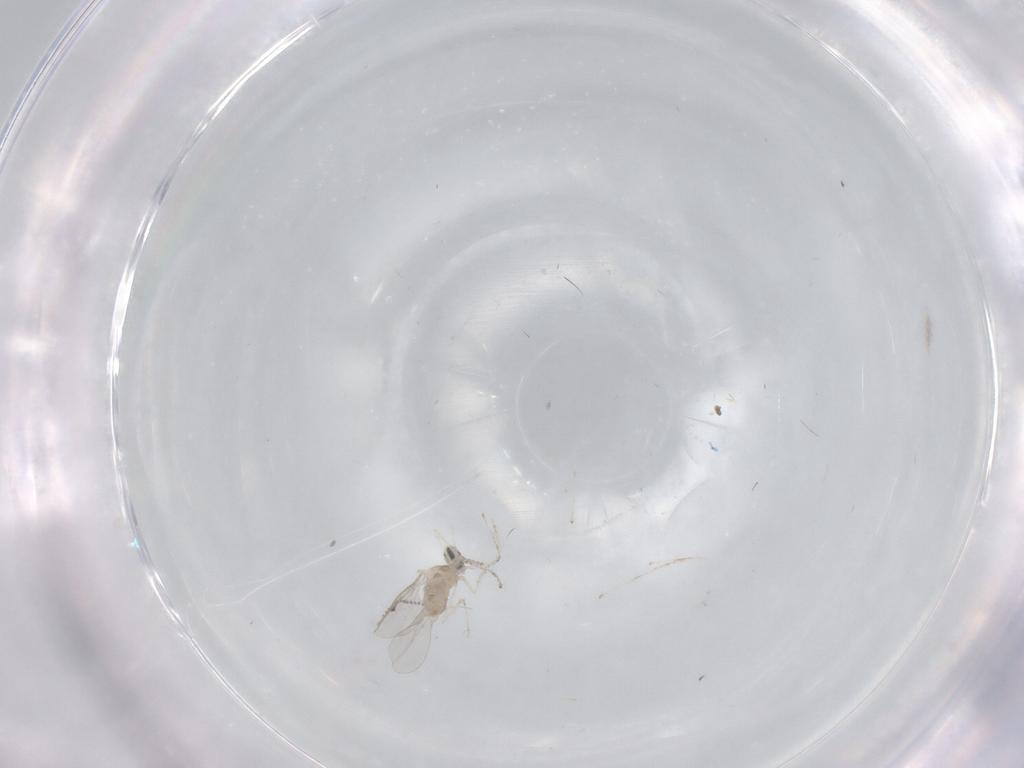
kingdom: Animalia
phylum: Arthropoda
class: Insecta
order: Diptera
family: Cecidomyiidae
